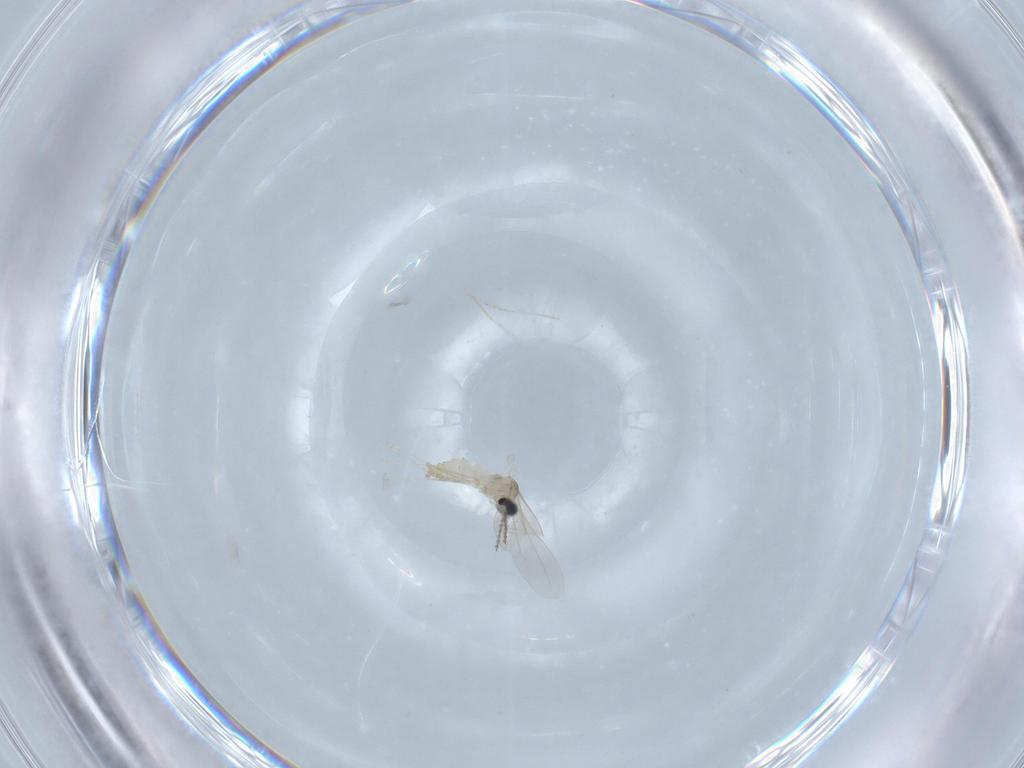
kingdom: Animalia
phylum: Arthropoda
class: Insecta
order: Diptera
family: Cecidomyiidae
